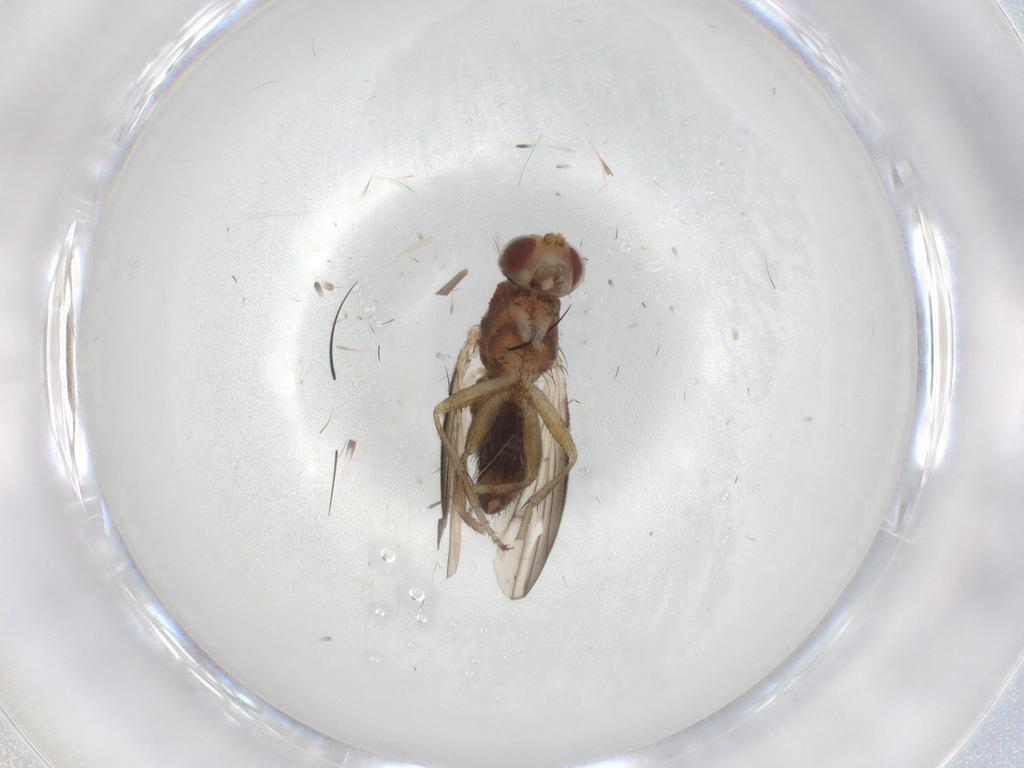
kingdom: Animalia
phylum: Arthropoda
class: Insecta
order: Diptera
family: Heleomyzidae
